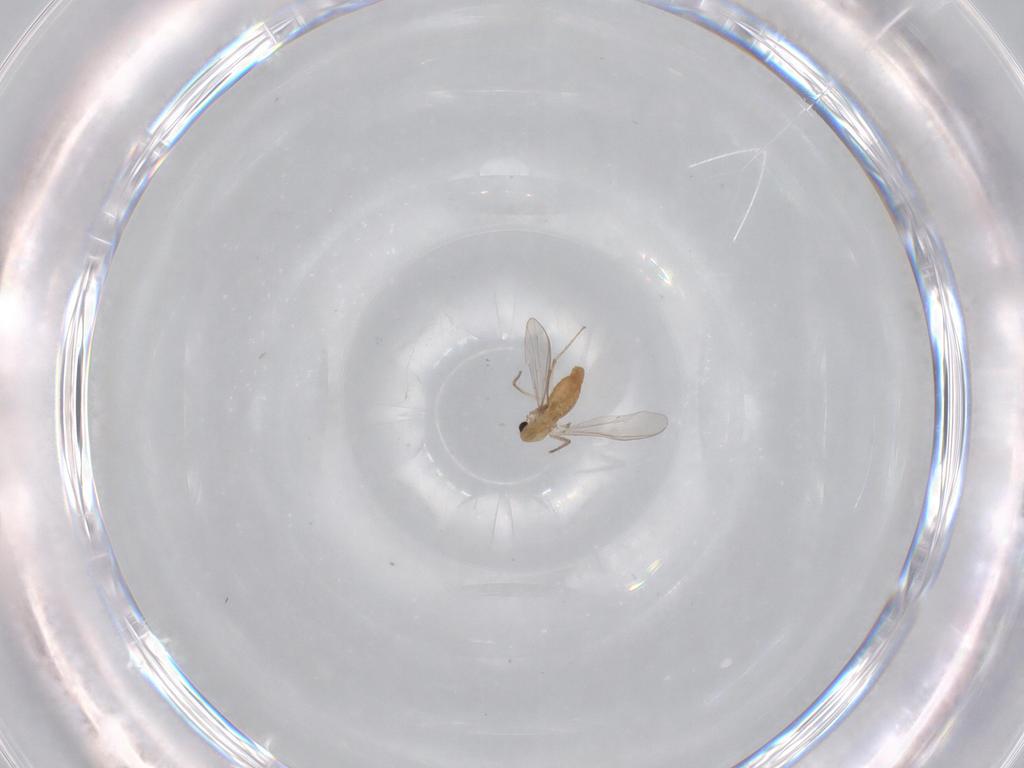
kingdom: Animalia
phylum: Arthropoda
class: Insecta
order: Diptera
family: Chironomidae
